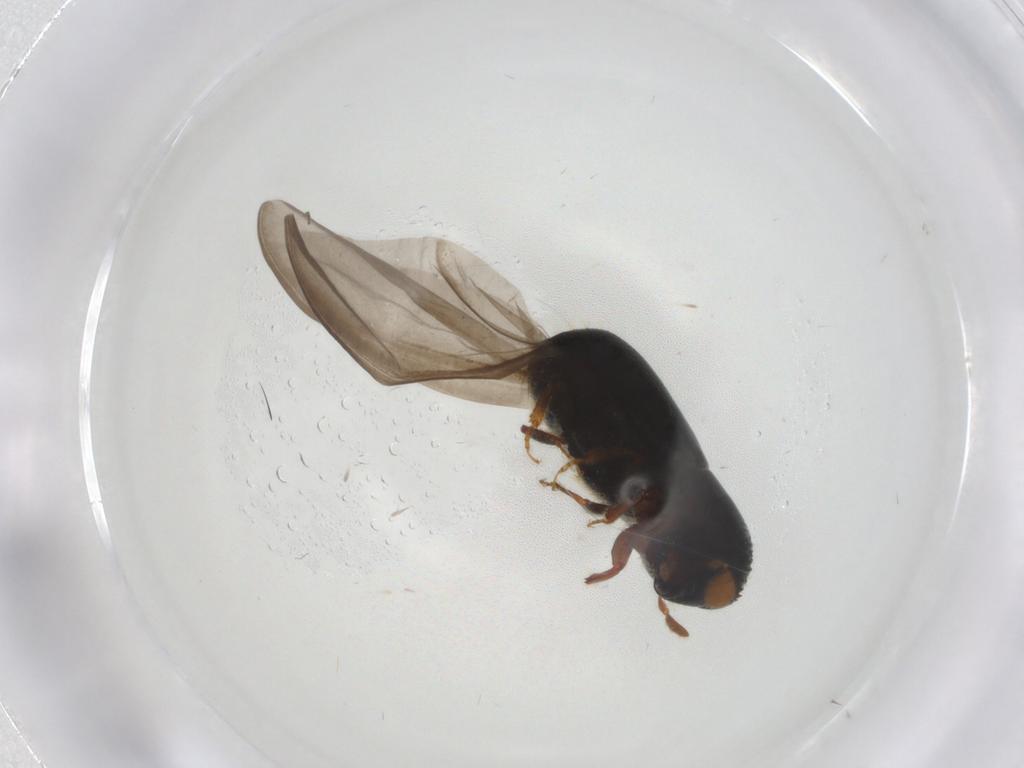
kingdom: Animalia
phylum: Arthropoda
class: Insecta
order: Coleoptera
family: Curculionidae
